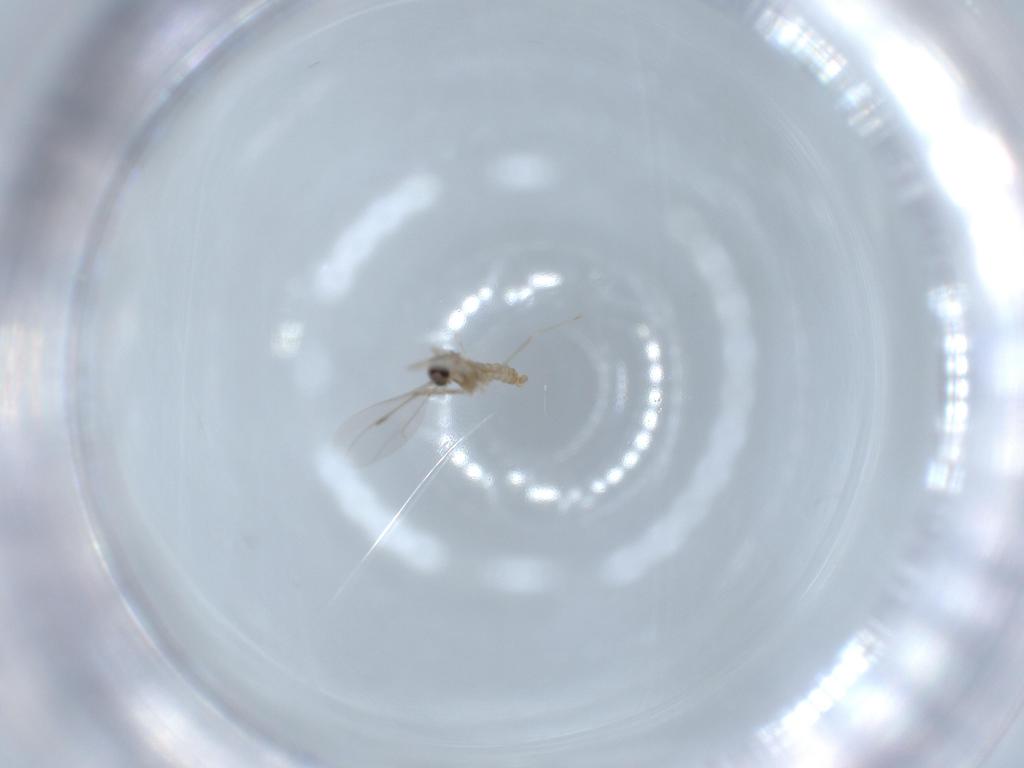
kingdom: Animalia
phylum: Arthropoda
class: Insecta
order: Diptera
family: Cecidomyiidae
